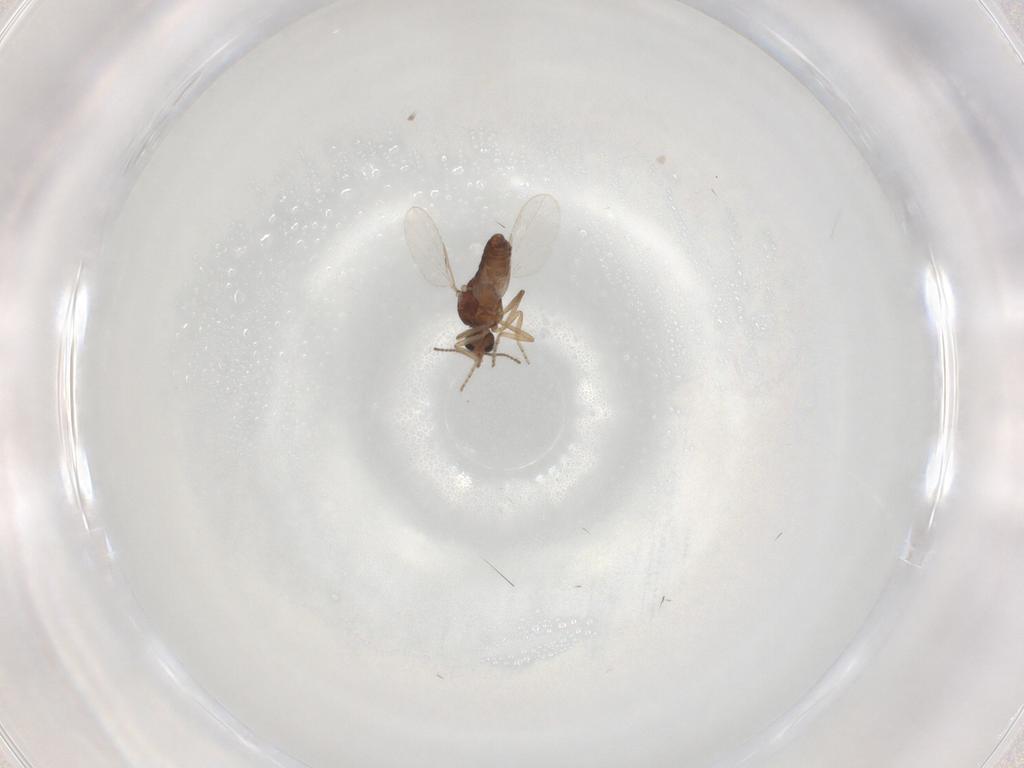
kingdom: Animalia
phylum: Arthropoda
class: Insecta
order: Diptera
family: Ceratopogonidae
